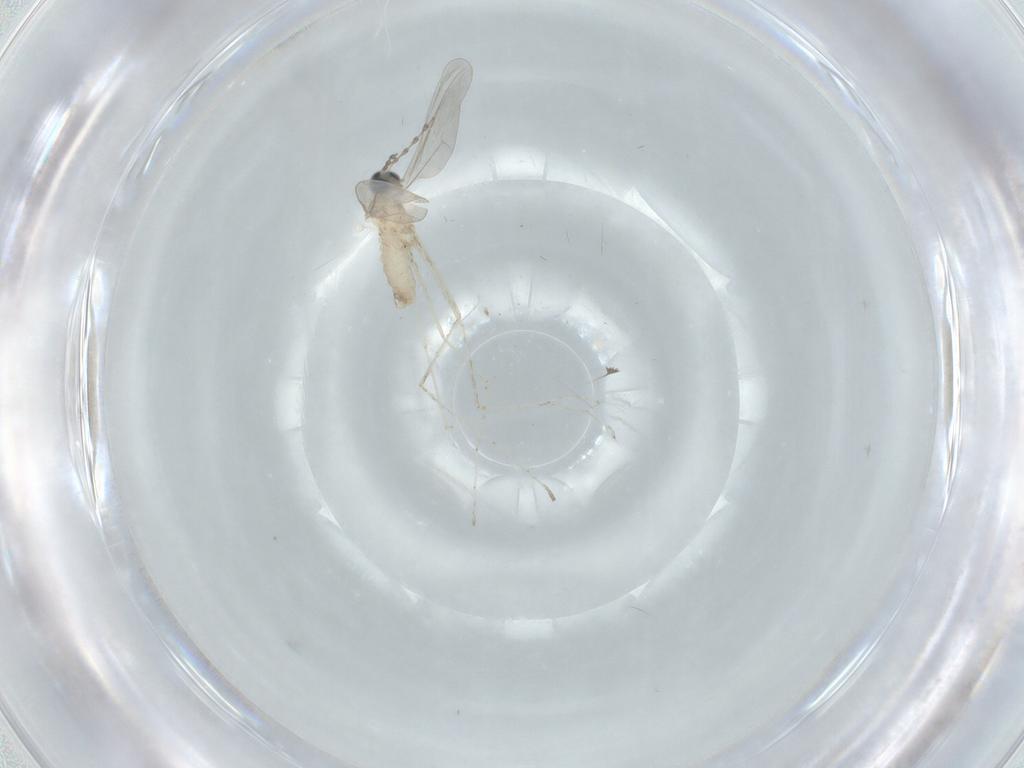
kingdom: Animalia
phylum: Arthropoda
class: Insecta
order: Diptera
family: Cecidomyiidae
